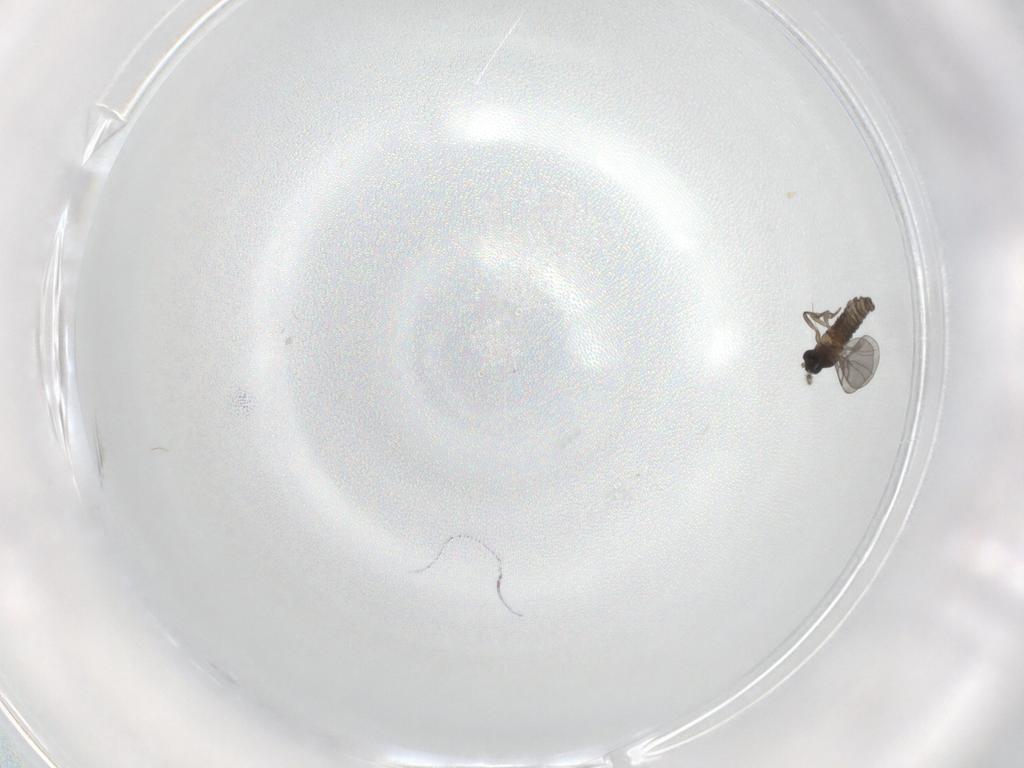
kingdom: Animalia
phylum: Arthropoda
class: Insecta
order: Diptera
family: Cecidomyiidae
